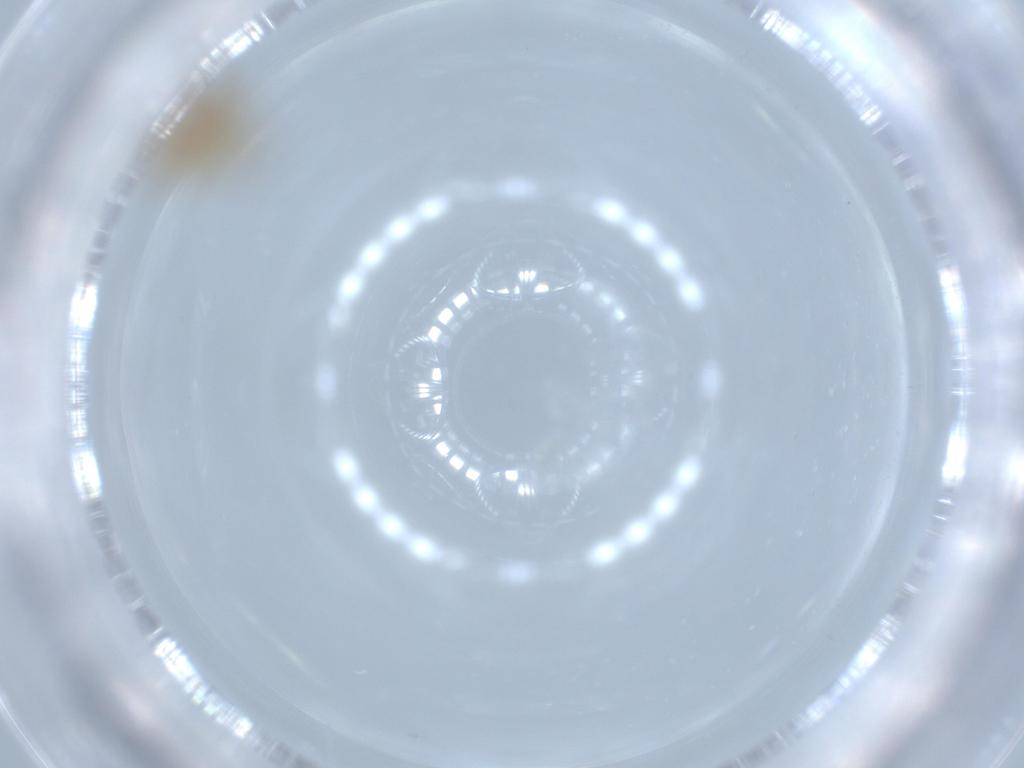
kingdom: Animalia
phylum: Arthropoda
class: Insecta
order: Hemiptera
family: Miridae
